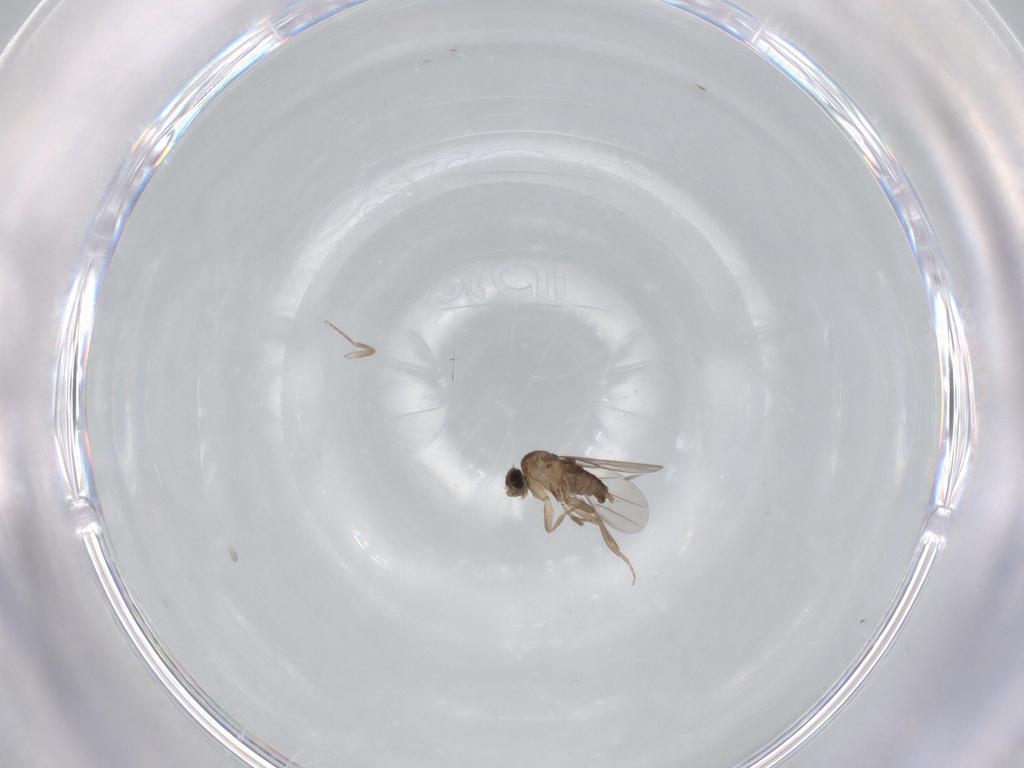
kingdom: Animalia
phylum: Arthropoda
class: Insecta
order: Diptera
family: Phoridae
